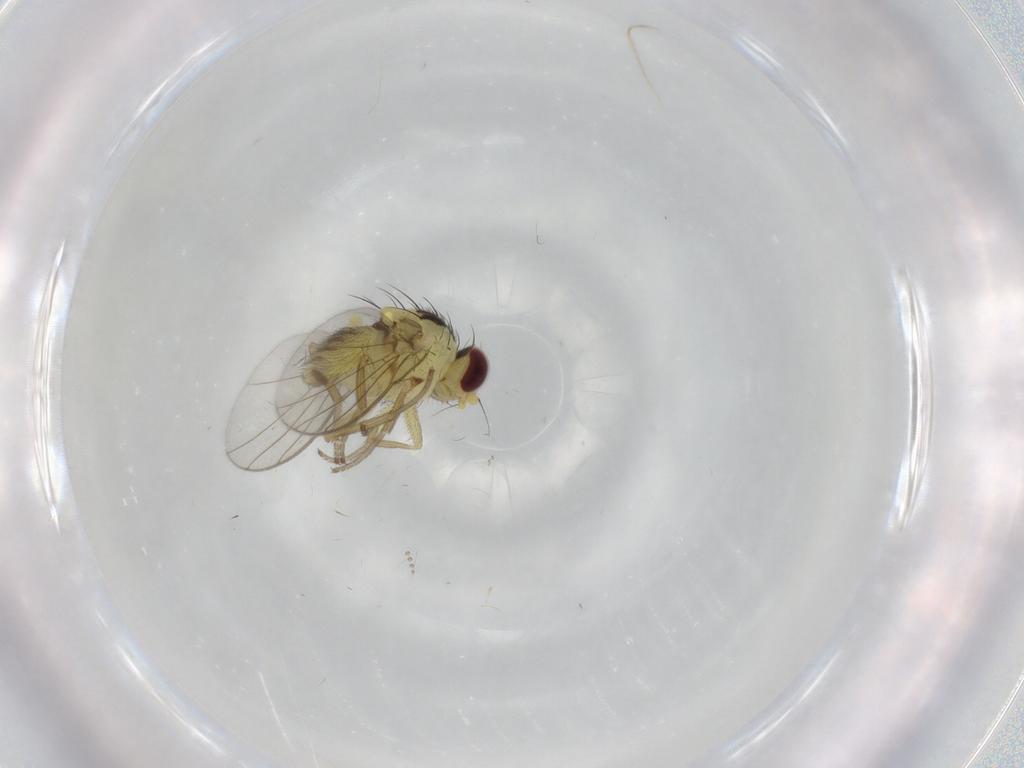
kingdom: Animalia
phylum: Arthropoda
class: Insecta
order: Diptera
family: Agromyzidae
